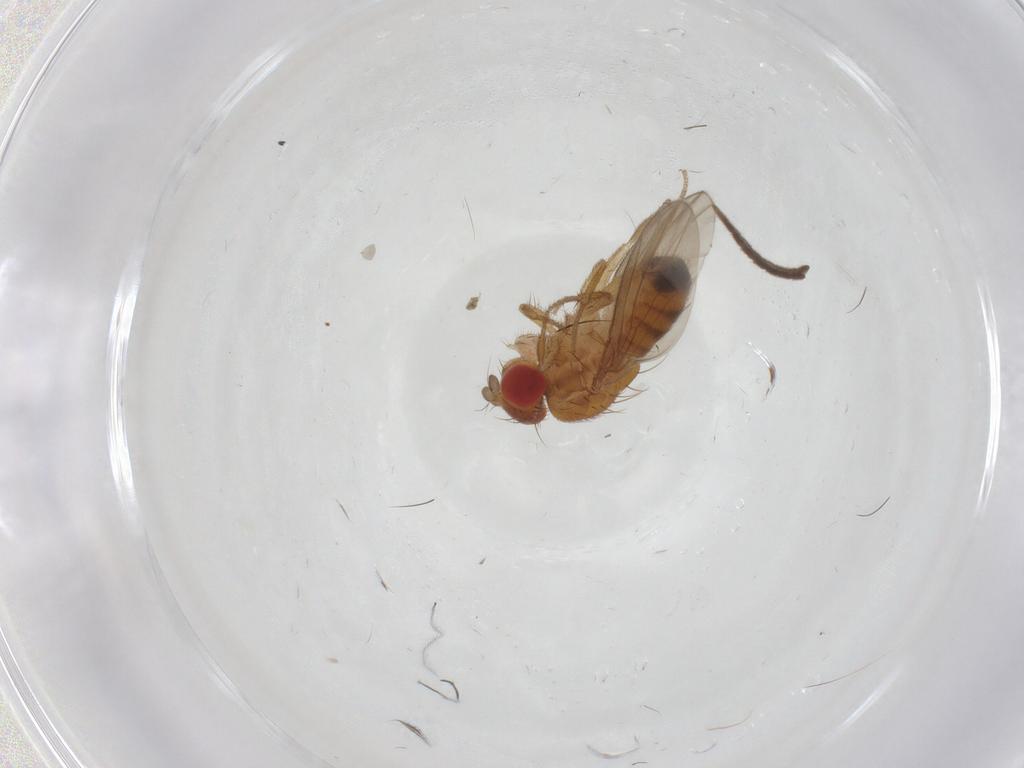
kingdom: Animalia
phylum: Arthropoda
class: Insecta
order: Diptera
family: Drosophilidae
